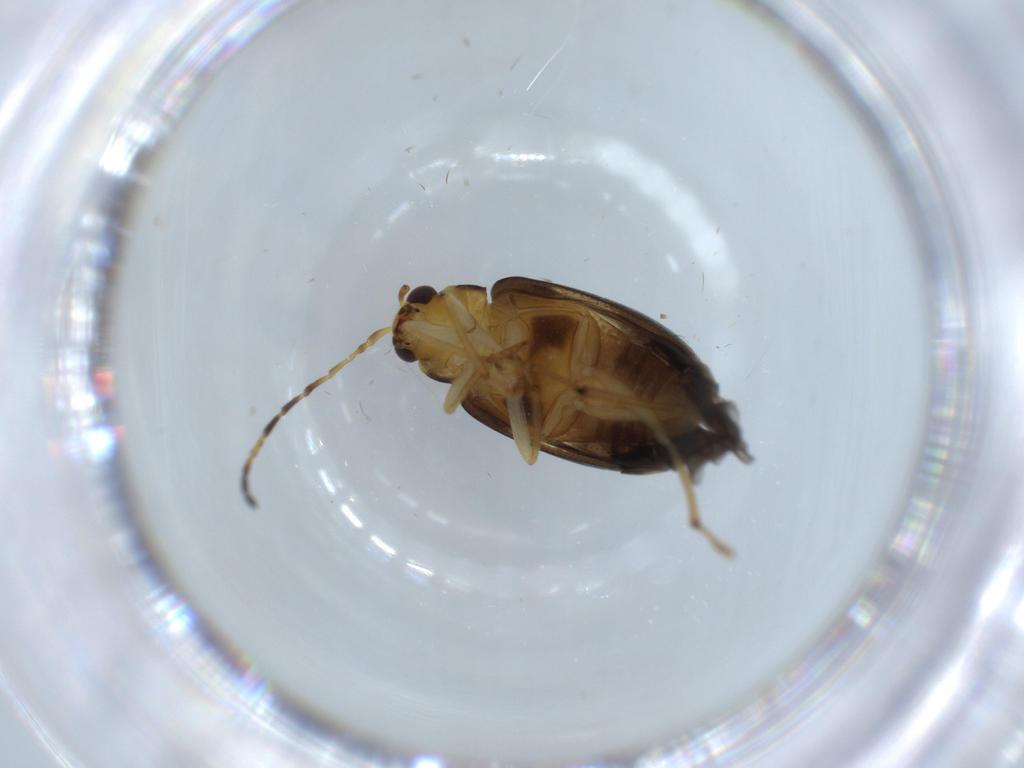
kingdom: Animalia
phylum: Arthropoda
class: Insecta
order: Coleoptera
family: Chrysomelidae
